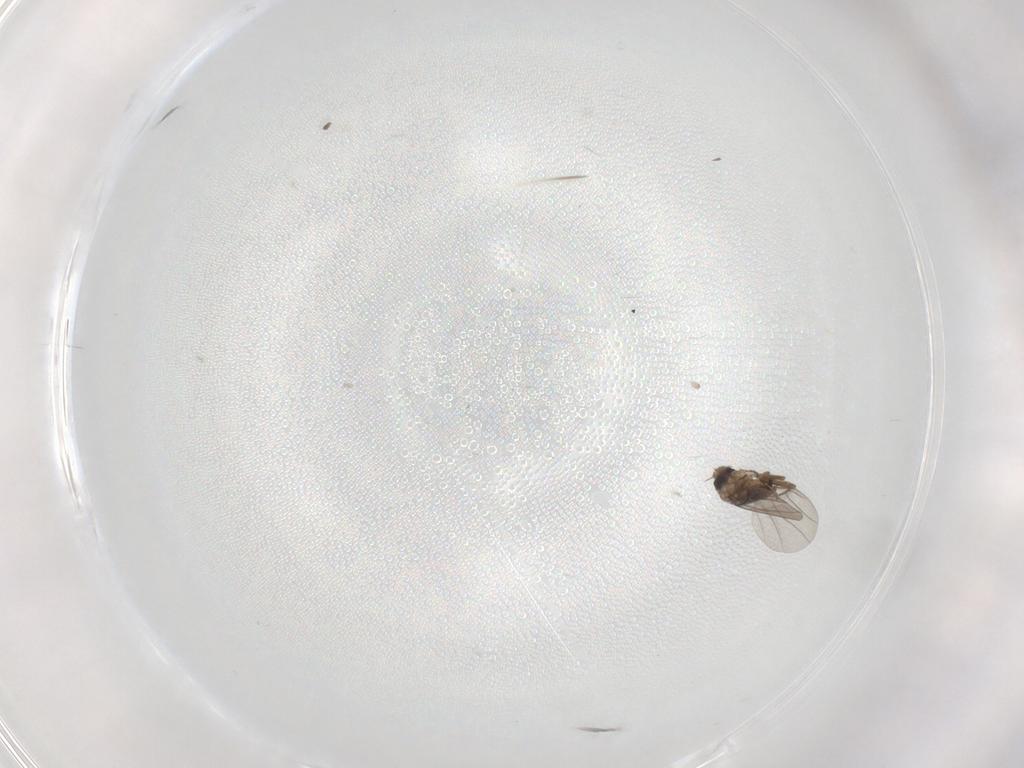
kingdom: Animalia
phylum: Arthropoda
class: Insecta
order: Diptera
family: Cecidomyiidae
